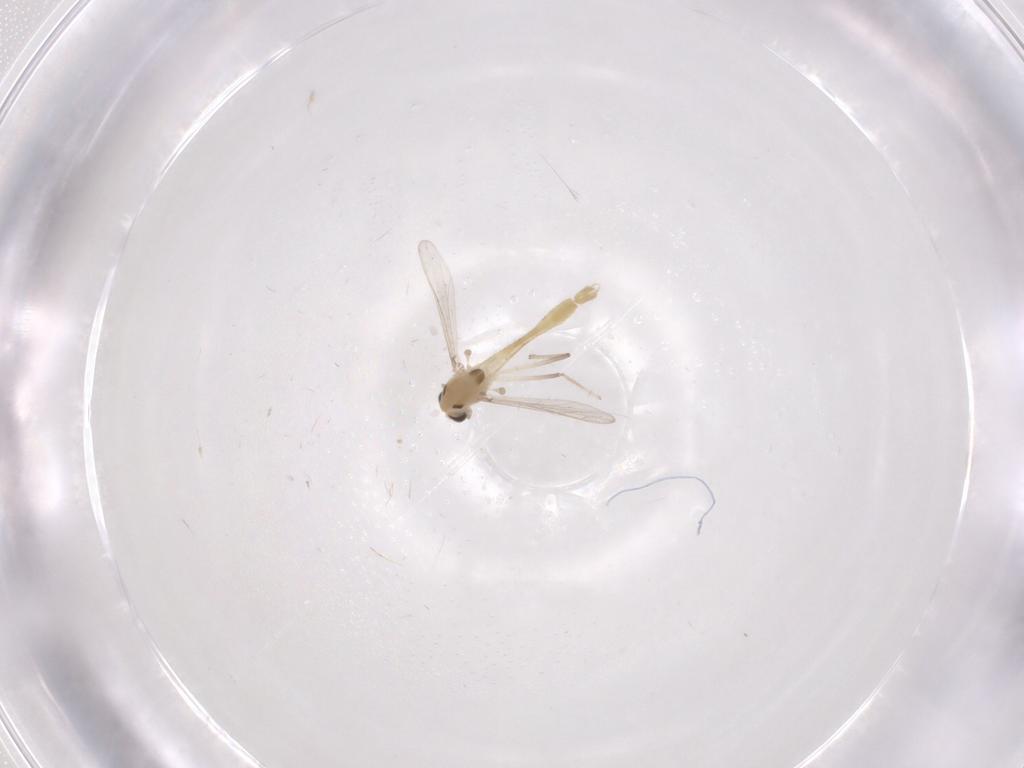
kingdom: Animalia
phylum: Arthropoda
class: Insecta
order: Diptera
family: Chironomidae
